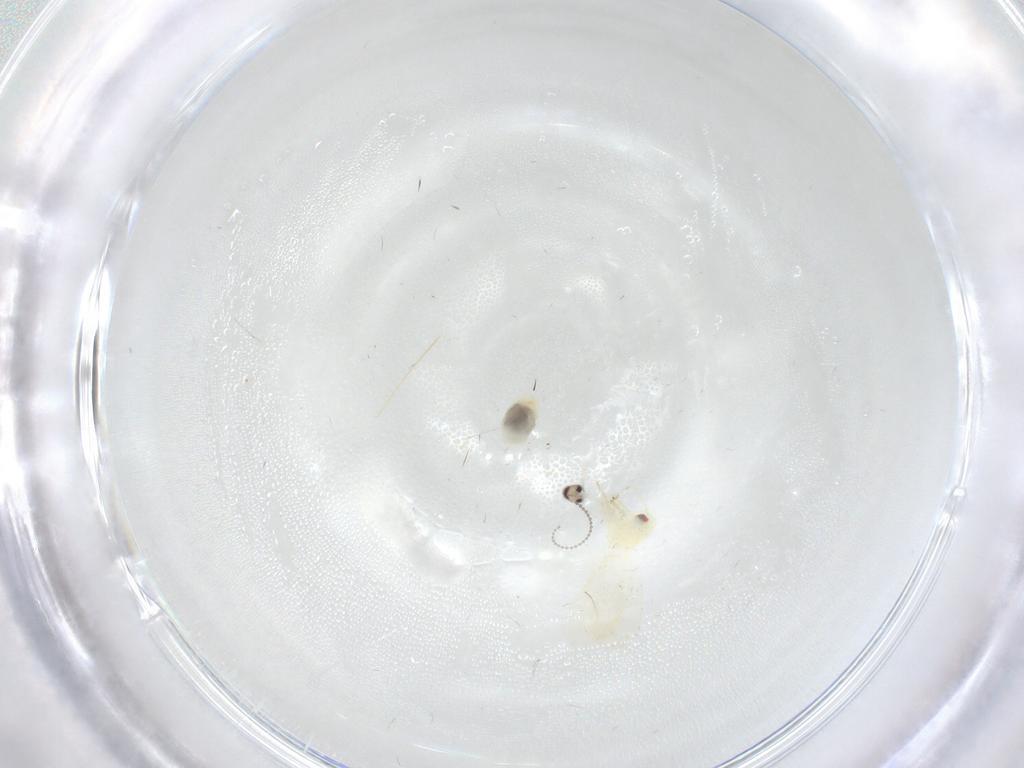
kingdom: Animalia
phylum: Arthropoda
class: Insecta
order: Hemiptera
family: Aleyrodidae
